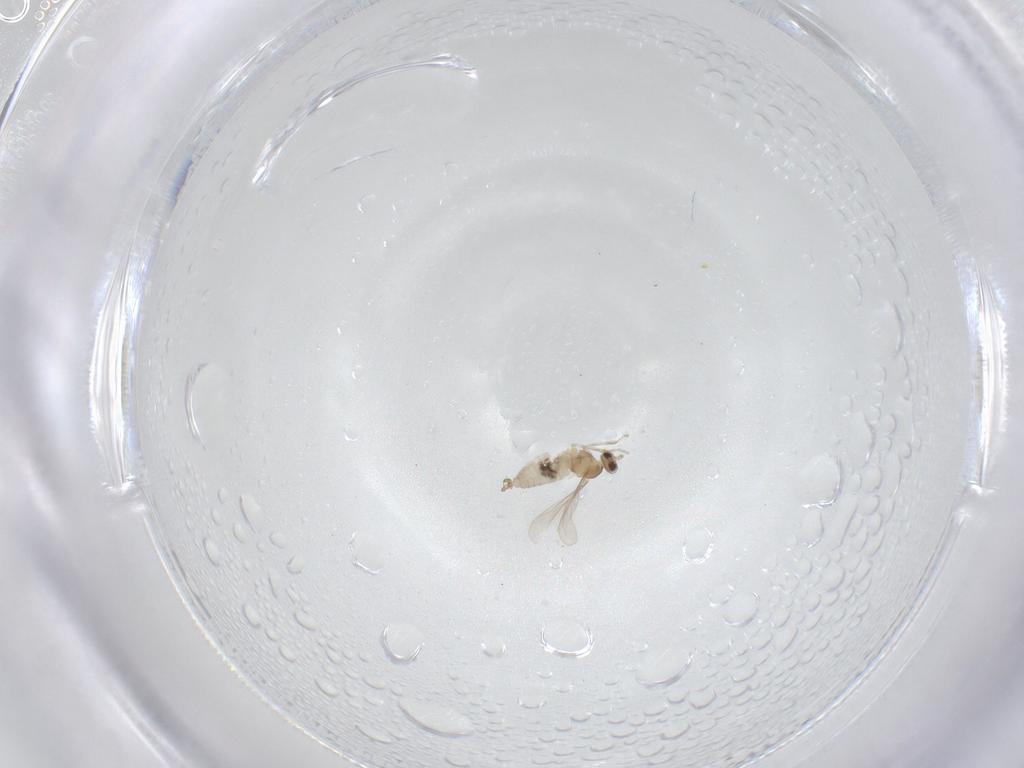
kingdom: Animalia
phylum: Arthropoda
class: Insecta
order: Diptera
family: Cecidomyiidae
